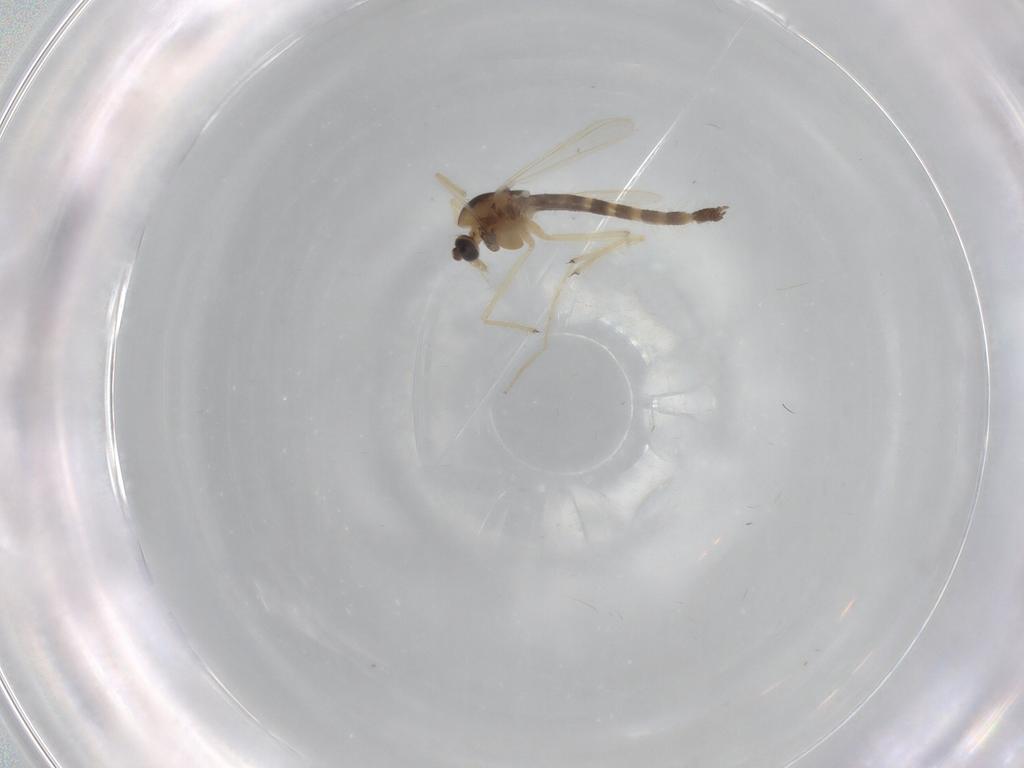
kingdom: Animalia
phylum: Arthropoda
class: Insecta
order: Diptera
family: Chironomidae
